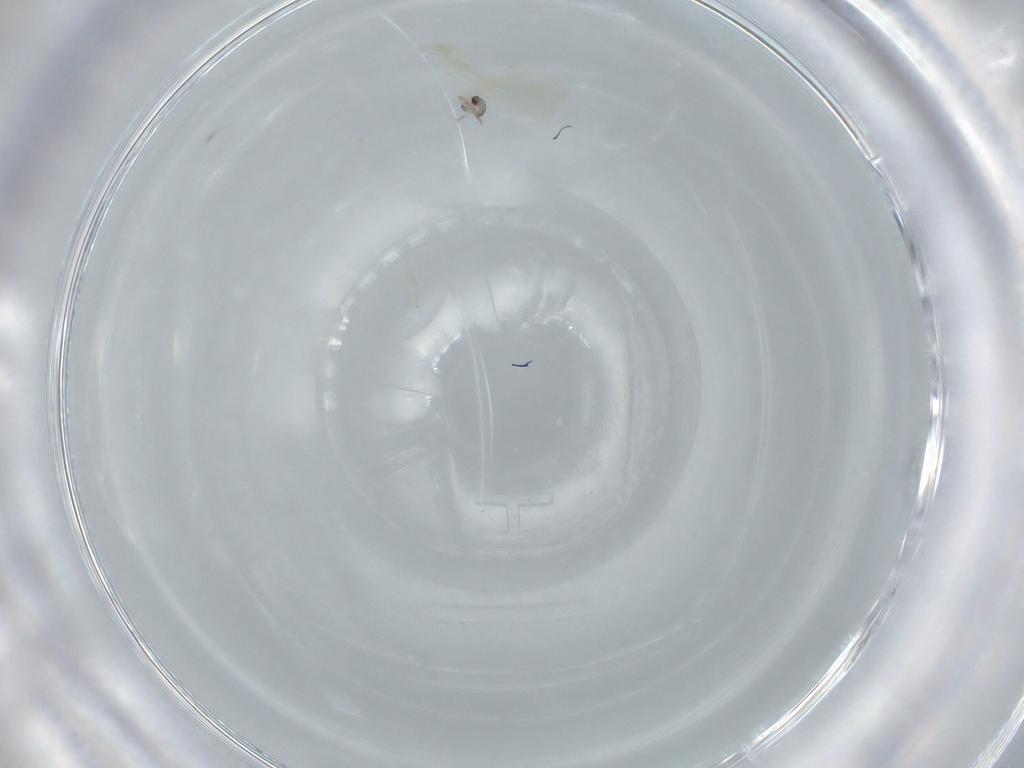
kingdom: Animalia
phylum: Arthropoda
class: Insecta
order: Diptera
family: Cecidomyiidae
